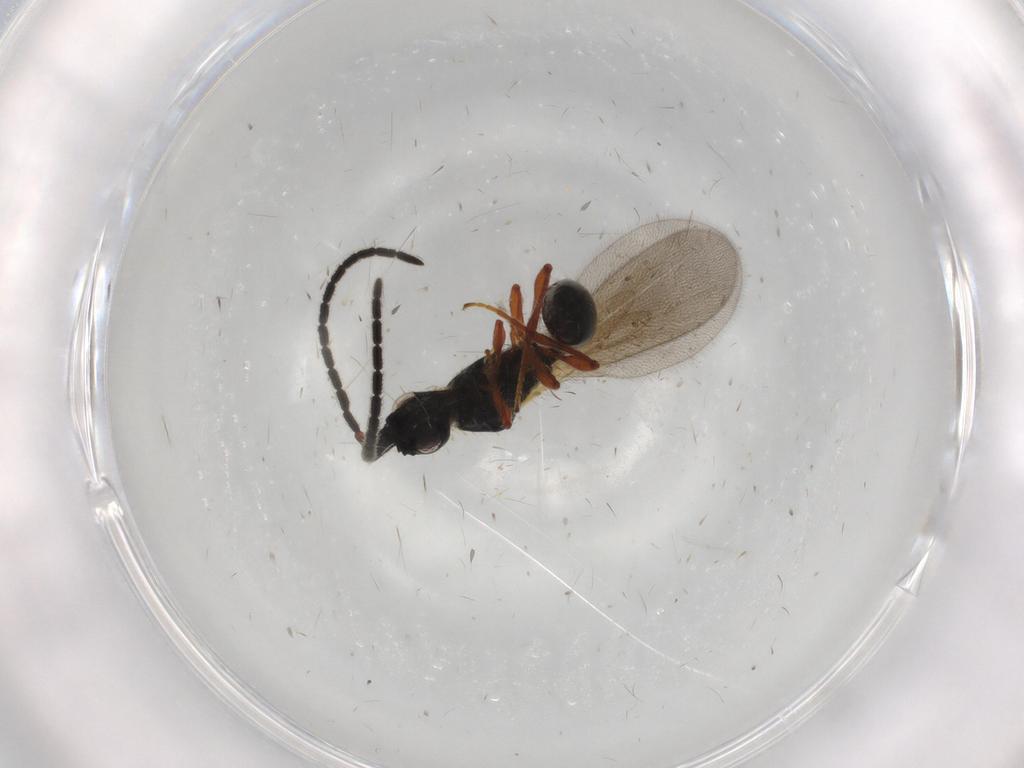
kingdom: Animalia
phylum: Arthropoda
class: Insecta
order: Hymenoptera
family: Diapriidae
